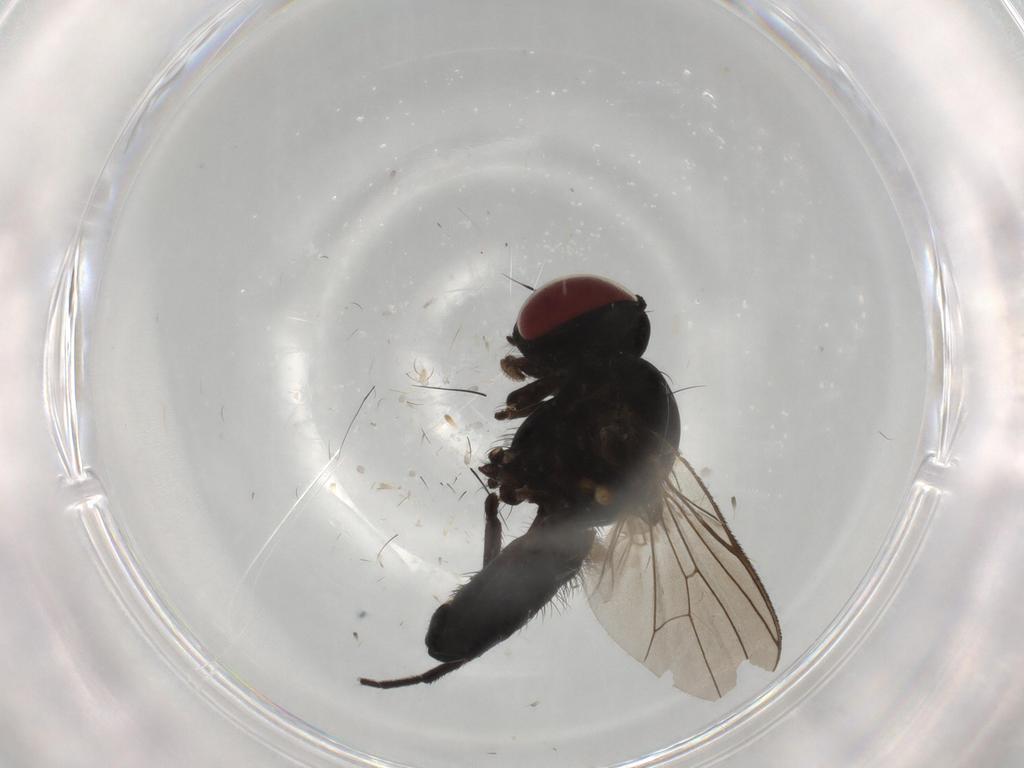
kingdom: Animalia
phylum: Arthropoda
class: Insecta
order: Diptera
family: Fannia
